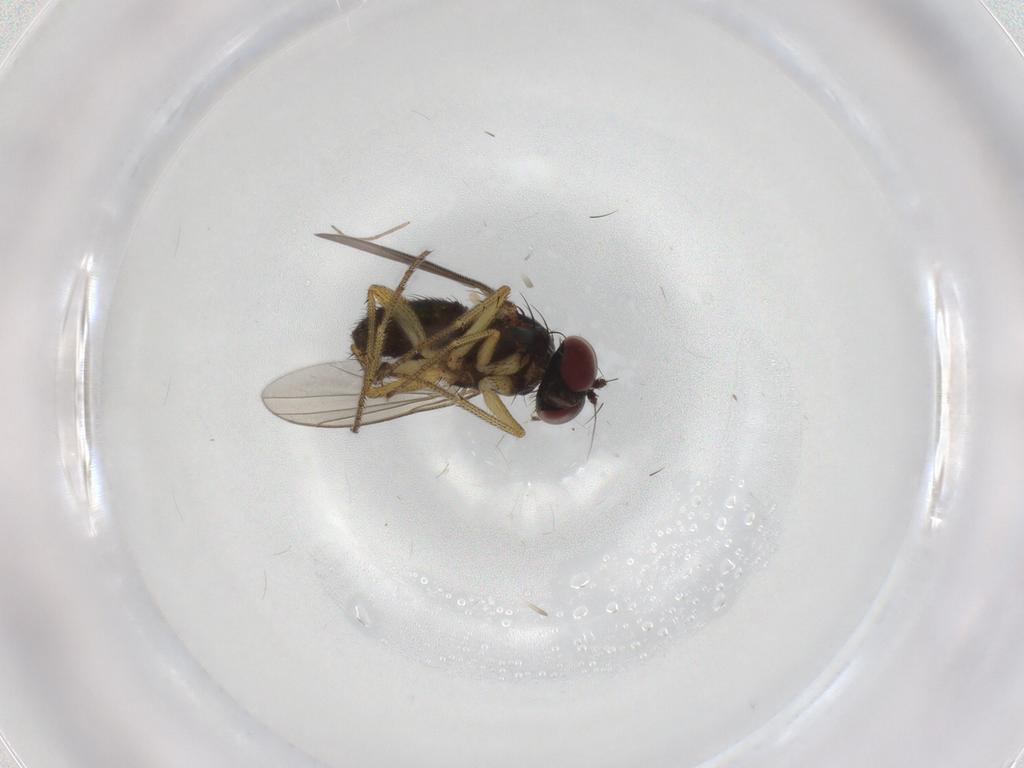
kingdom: Animalia
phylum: Arthropoda
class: Insecta
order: Diptera
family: Dolichopodidae
